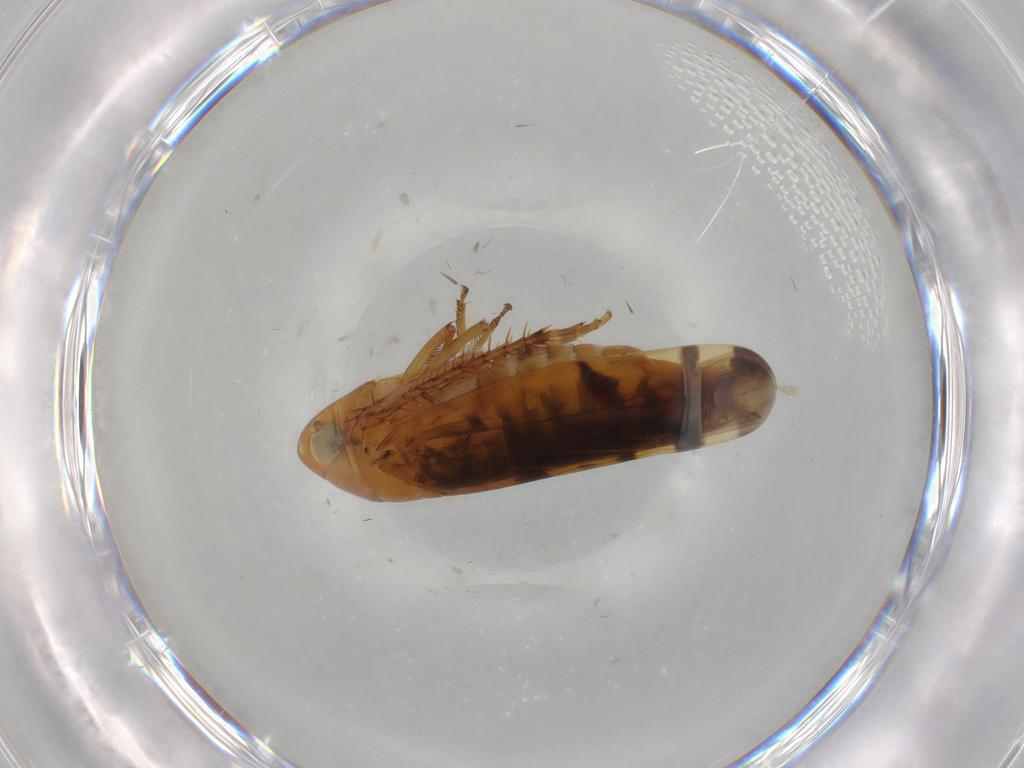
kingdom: Animalia
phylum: Arthropoda
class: Insecta
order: Hemiptera
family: Cicadellidae
